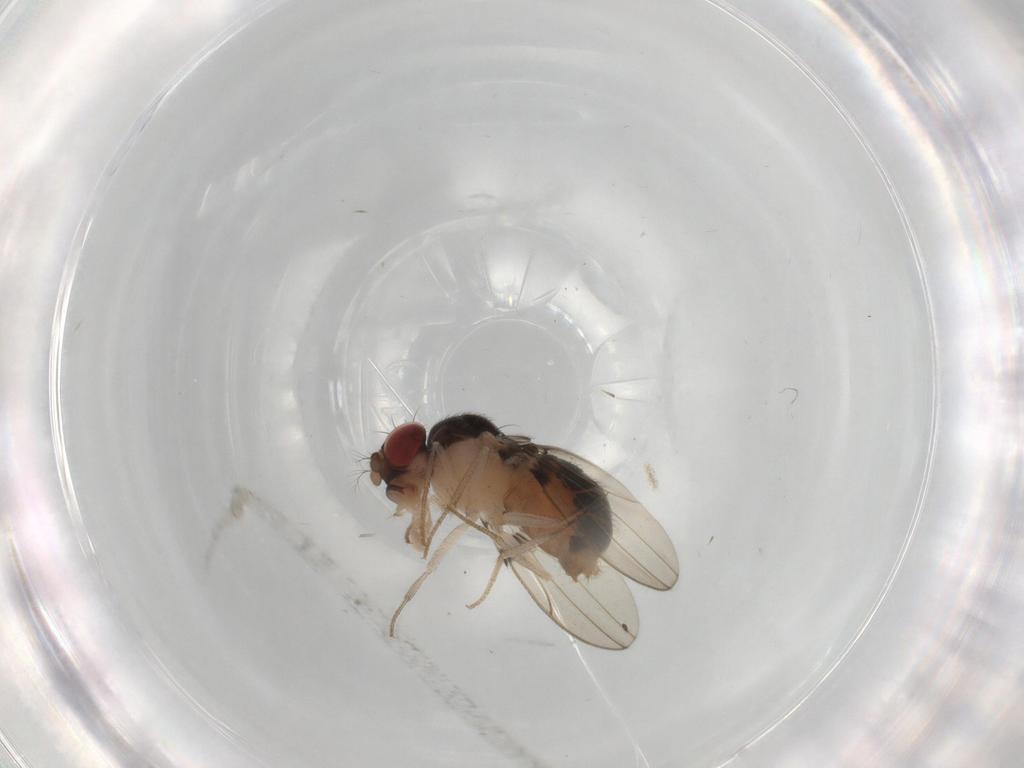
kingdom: Animalia
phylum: Arthropoda
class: Insecta
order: Diptera
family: Drosophilidae
